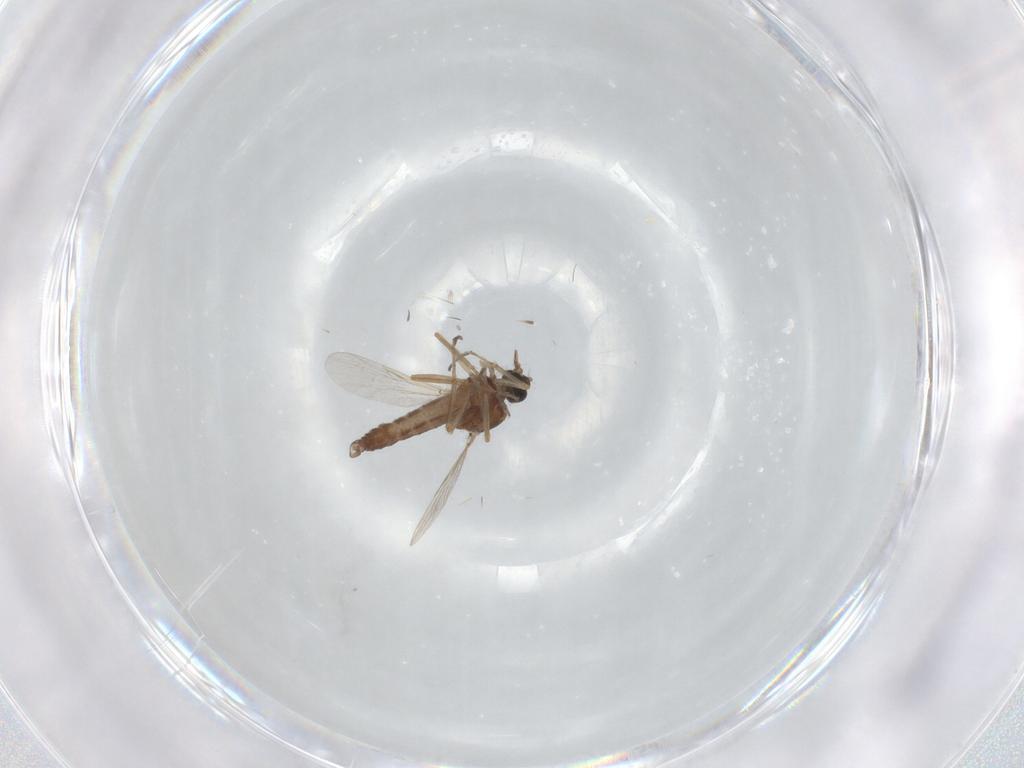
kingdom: Animalia
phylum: Arthropoda
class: Insecta
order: Diptera
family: Ceratopogonidae
